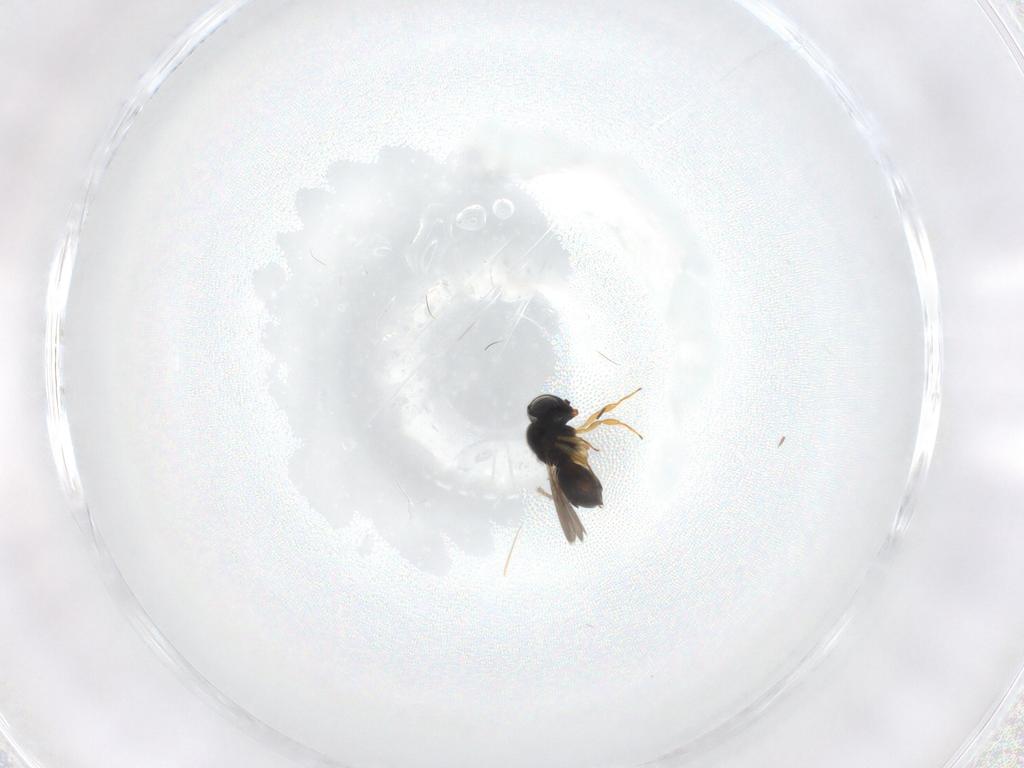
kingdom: Animalia
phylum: Arthropoda
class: Insecta
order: Hymenoptera
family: Scelionidae
